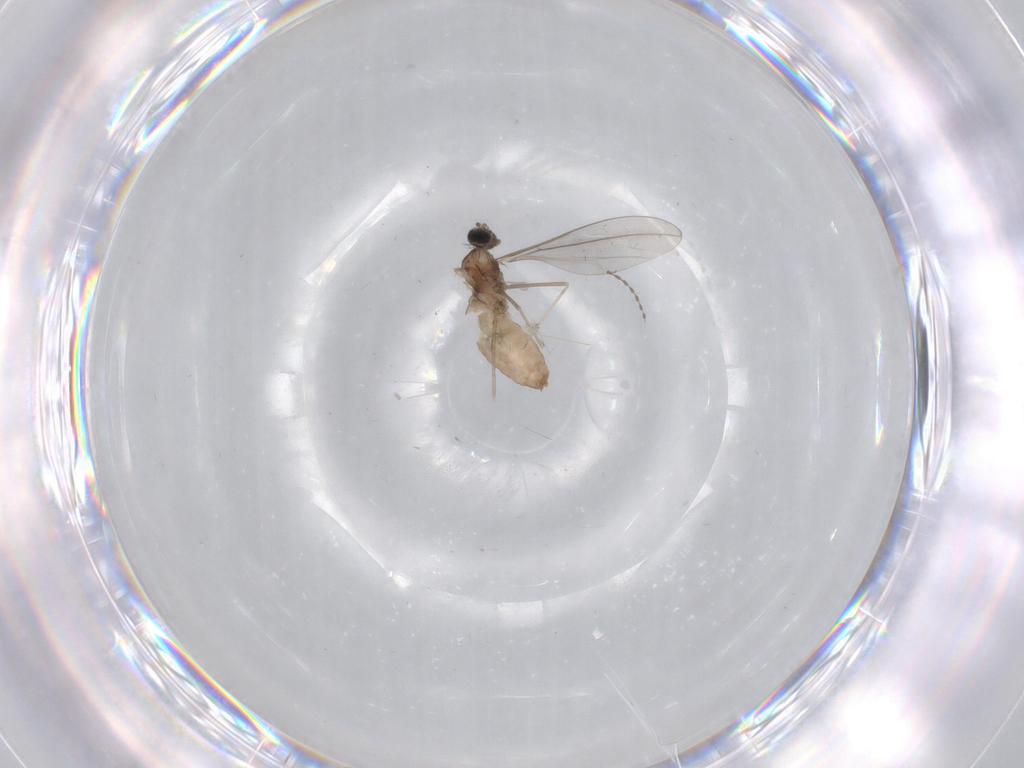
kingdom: Animalia
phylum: Arthropoda
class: Insecta
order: Diptera
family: Cecidomyiidae
